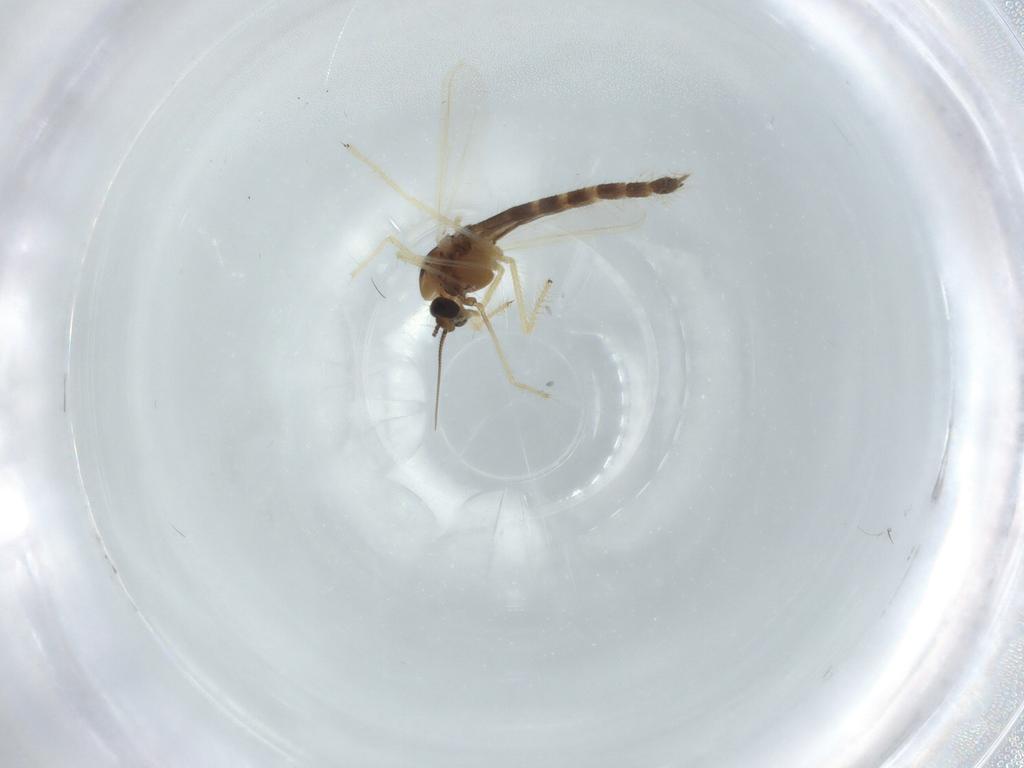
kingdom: Animalia
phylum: Arthropoda
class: Insecta
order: Diptera
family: Chironomidae
